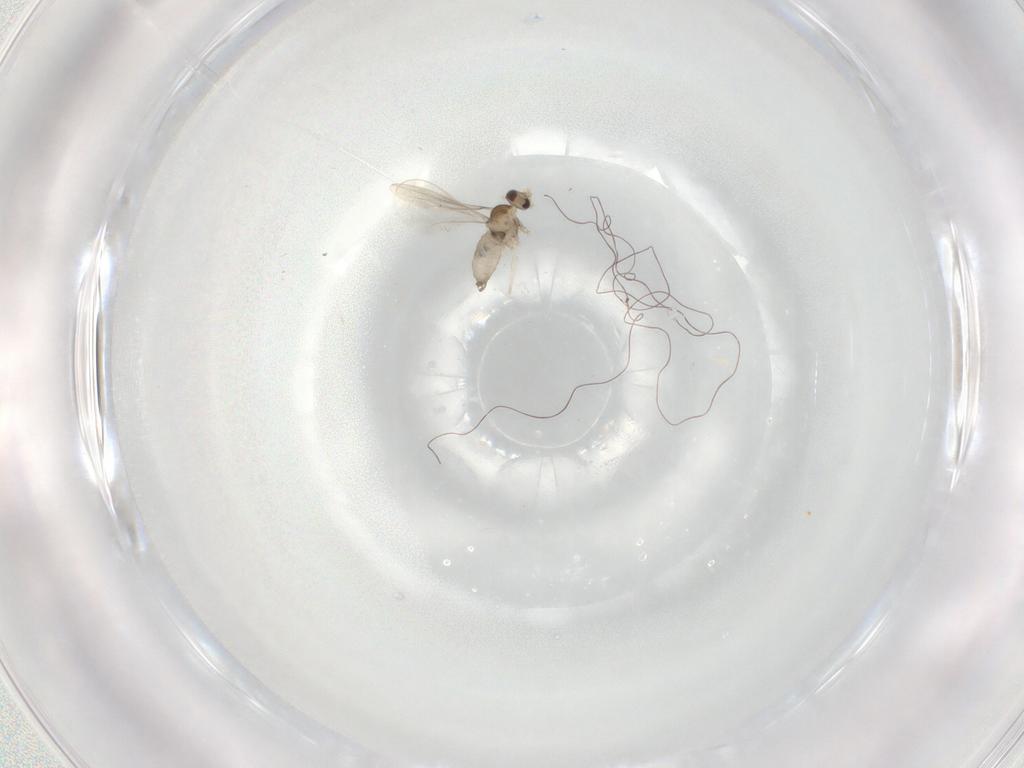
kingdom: Animalia
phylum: Arthropoda
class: Insecta
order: Diptera
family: Cecidomyiidae
